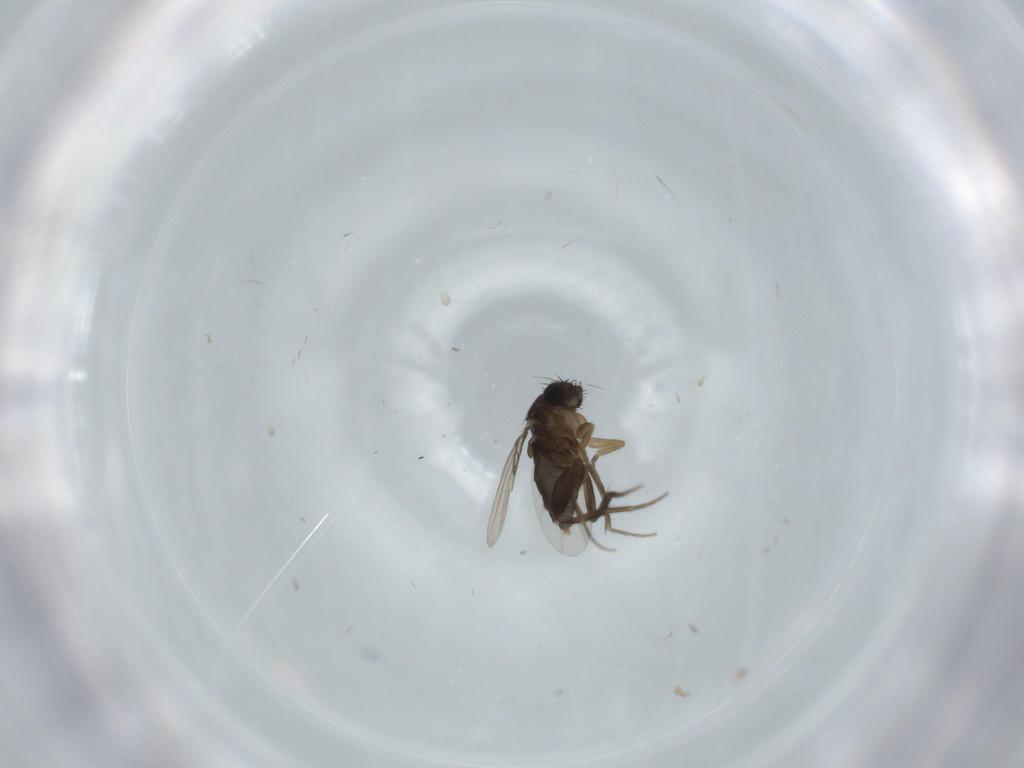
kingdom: Animalia
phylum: Arthropoda
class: Insecta
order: Diptera
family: Phoridae
